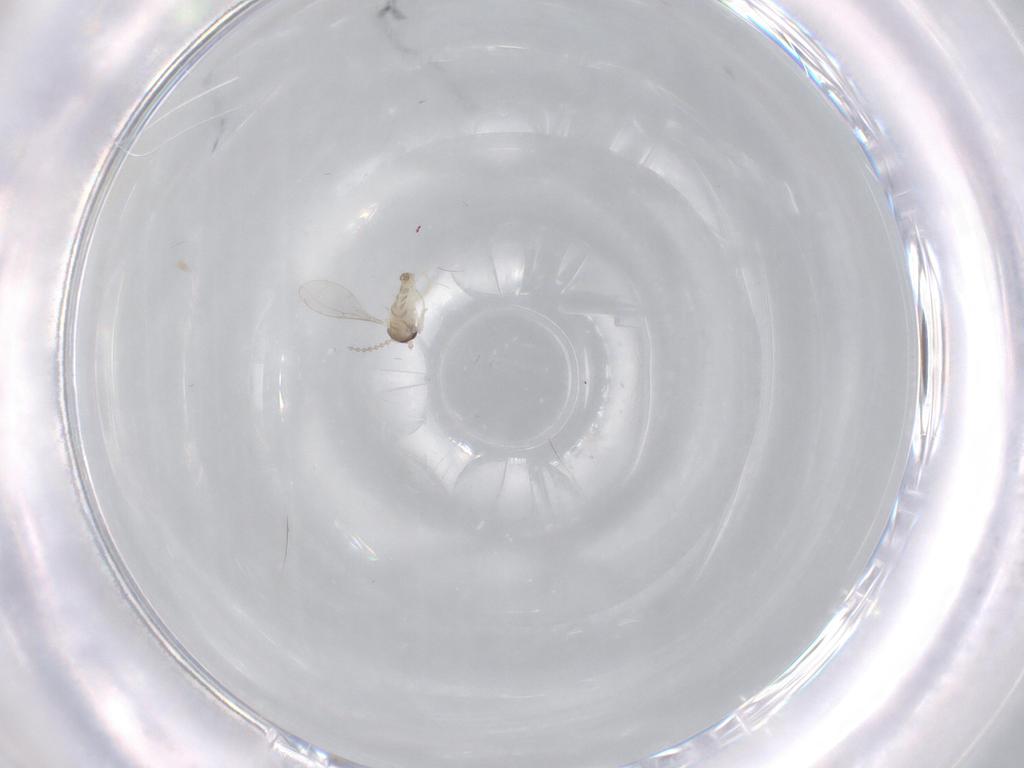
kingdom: Animalia
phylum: Arthropoda
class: Insecta
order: Diptera
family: Cecidomyiidae
